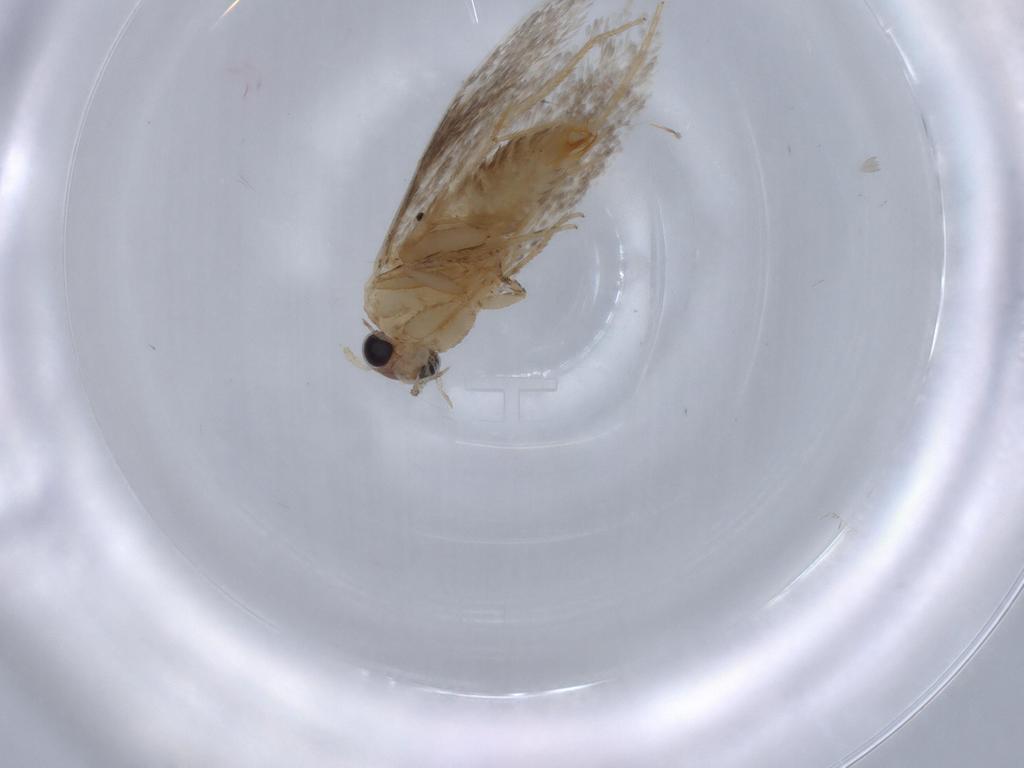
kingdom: Animalia
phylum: Arthropoda
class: Insecta
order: Lepidoptera
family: Tineidae
